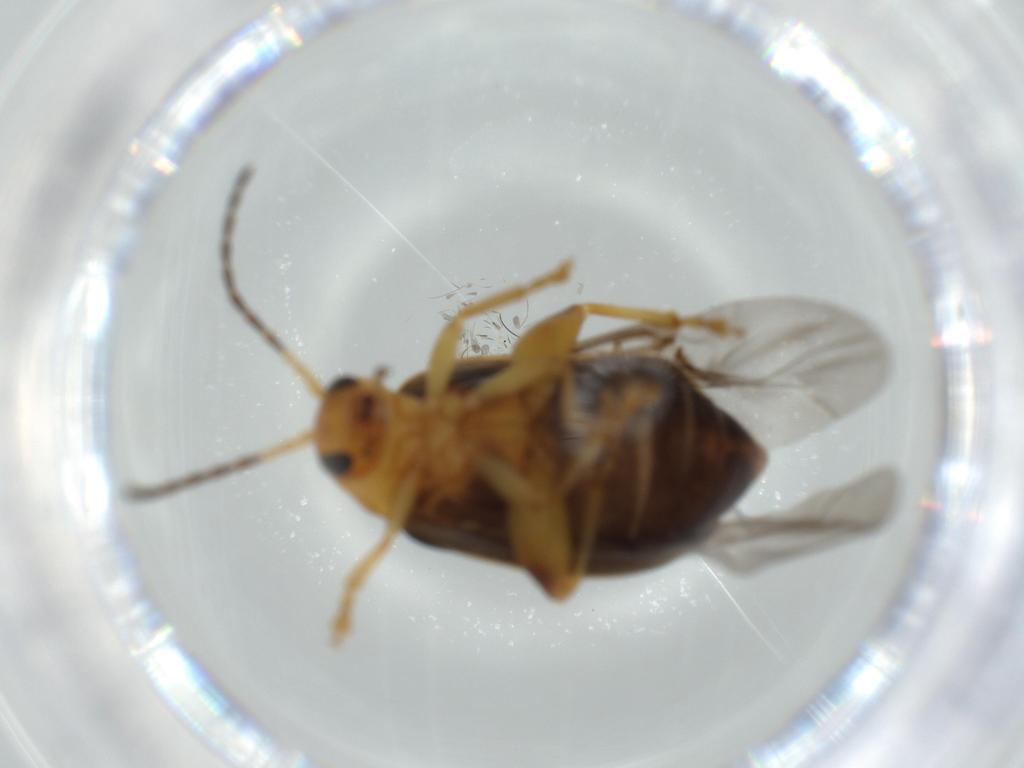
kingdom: Animalia
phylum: Arthropoda
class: Insecta
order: Coleoptera
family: Chrysomelidae
